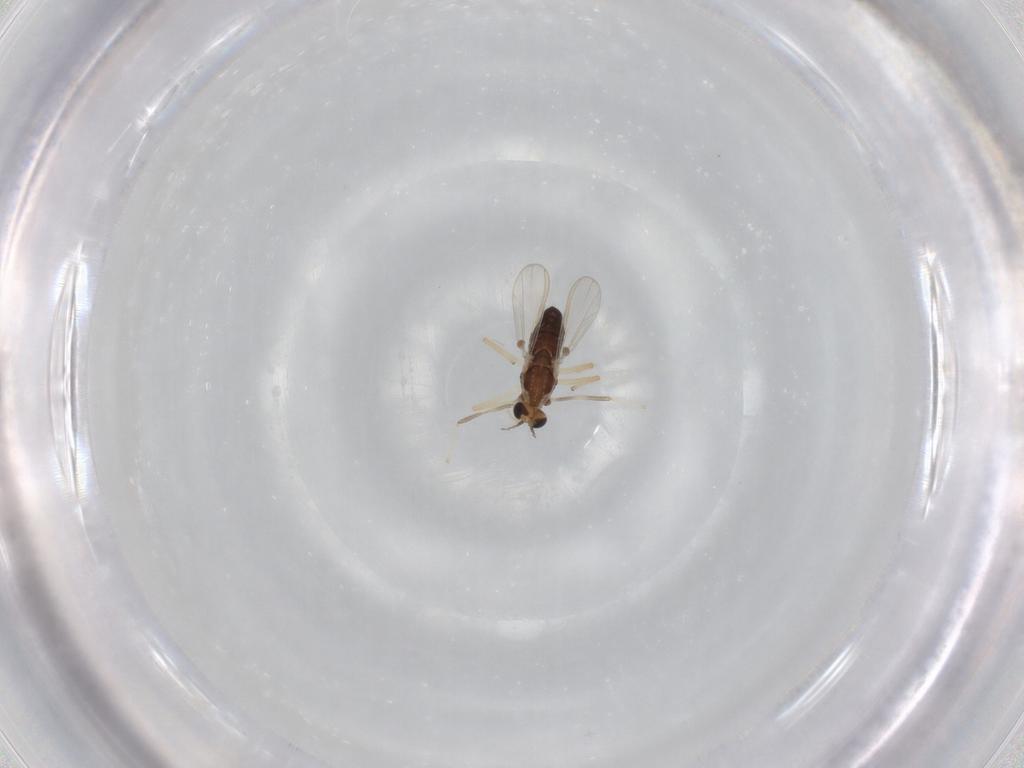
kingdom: Animalia
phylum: Arthropoda
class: Insecta
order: Diptera
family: Chironomidae
